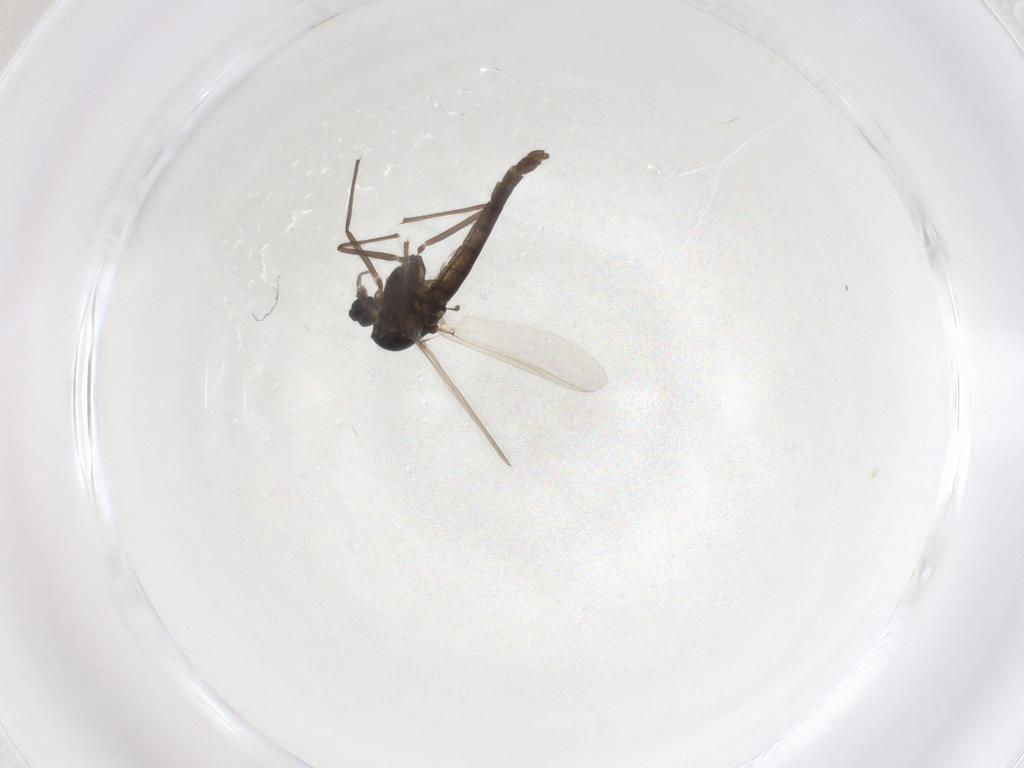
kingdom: Animalia
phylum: Arthropoda
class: Insecta
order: Diptera
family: Chironomidae
